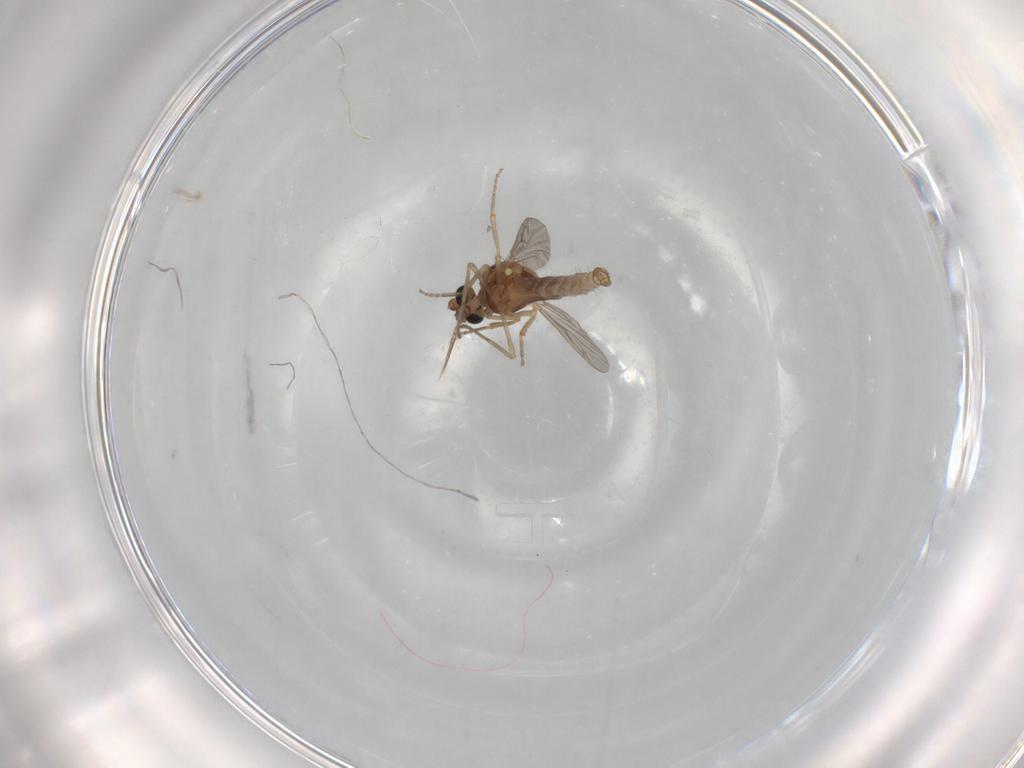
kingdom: Animalia
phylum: Arthropoda
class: Insecta
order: Diptera
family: Ceratopogonidae
